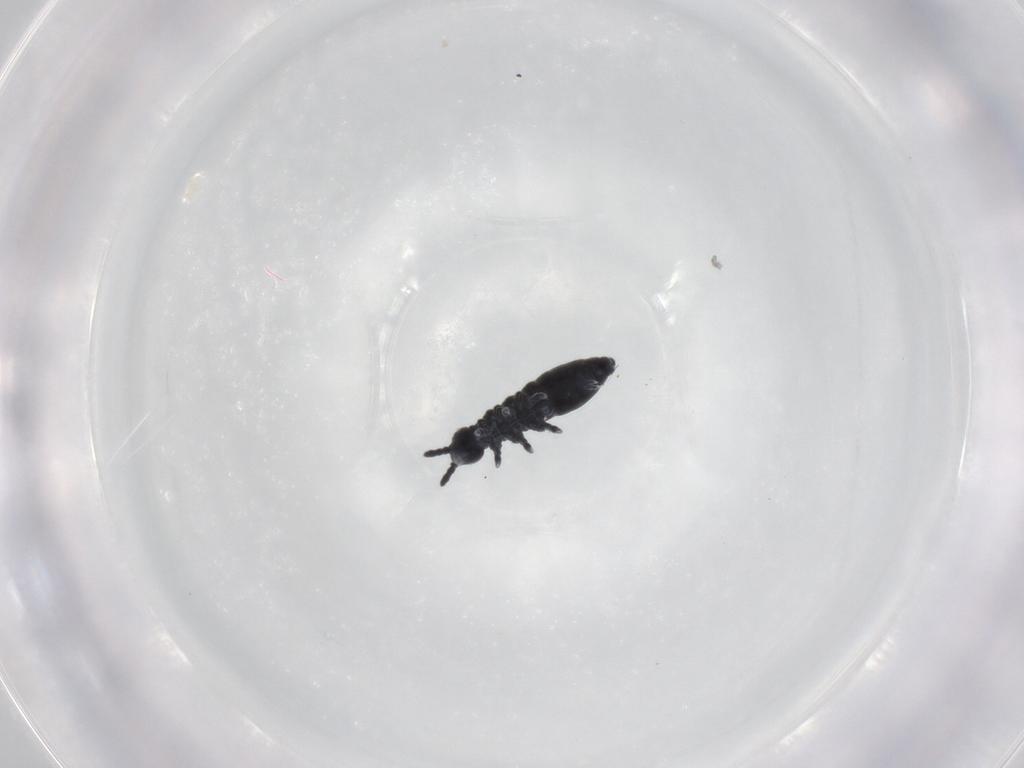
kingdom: Animalia
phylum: Arthropoda
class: Collembola
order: Poduromorpha
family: Hypogastruridae
